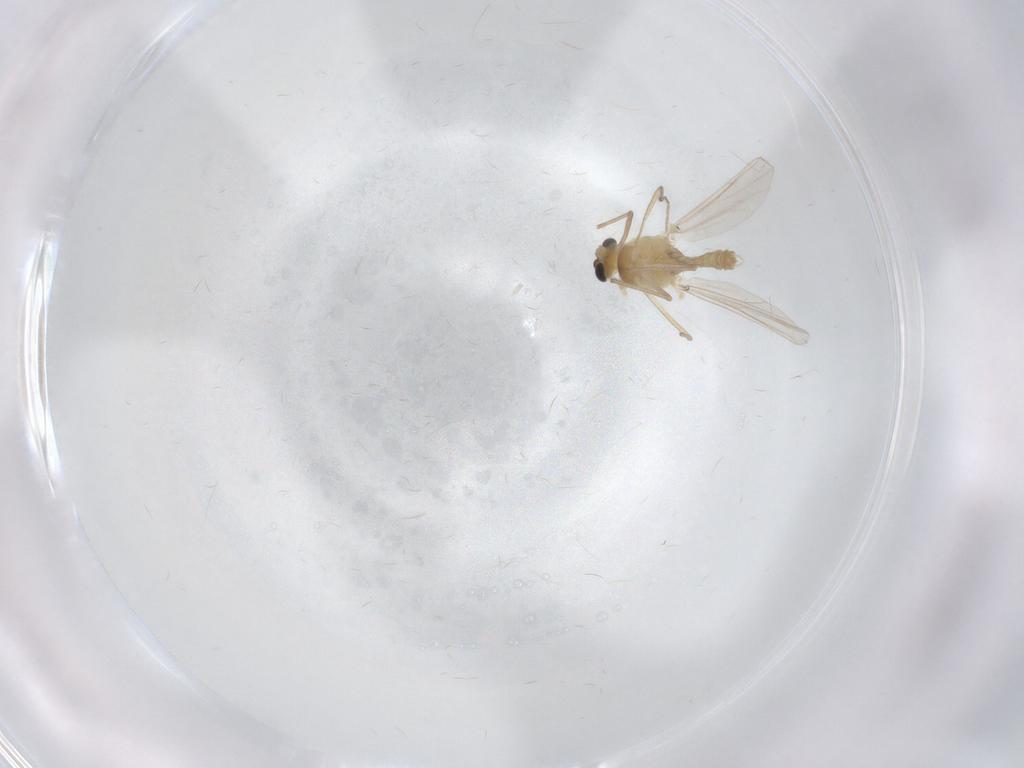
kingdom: Animalia
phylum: Arthropoda
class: Insecta
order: Diptera
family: Chironomidae
